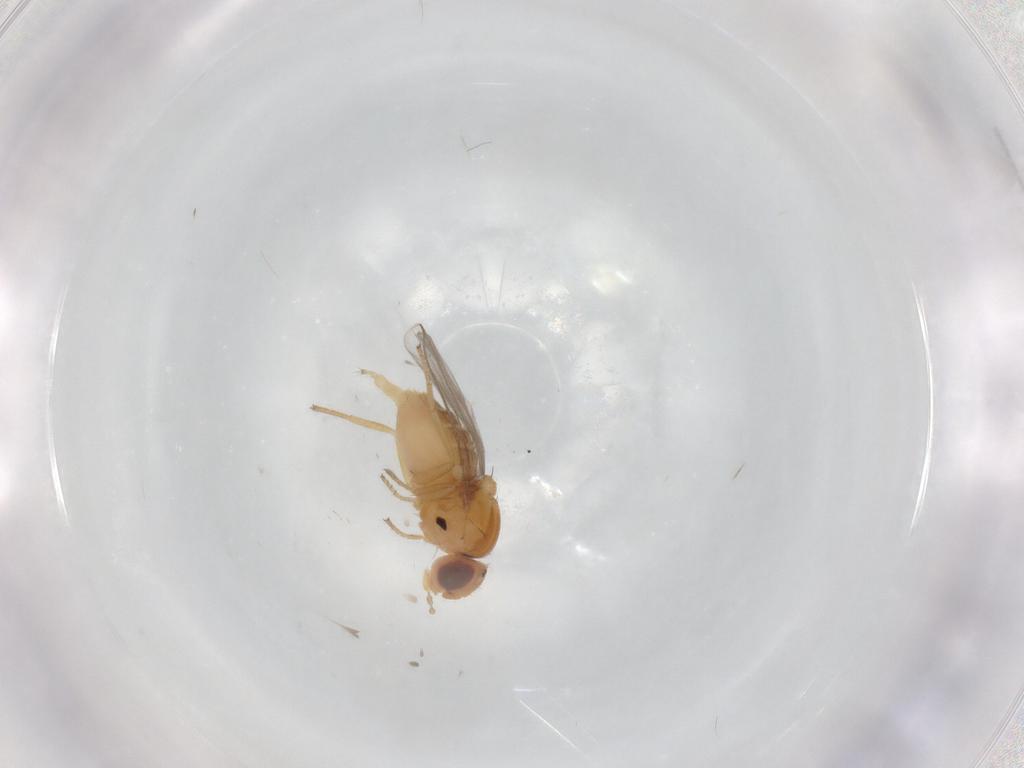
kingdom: Animalia
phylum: Arthropoda
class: Insecta
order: Diptera
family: Chloropidae
